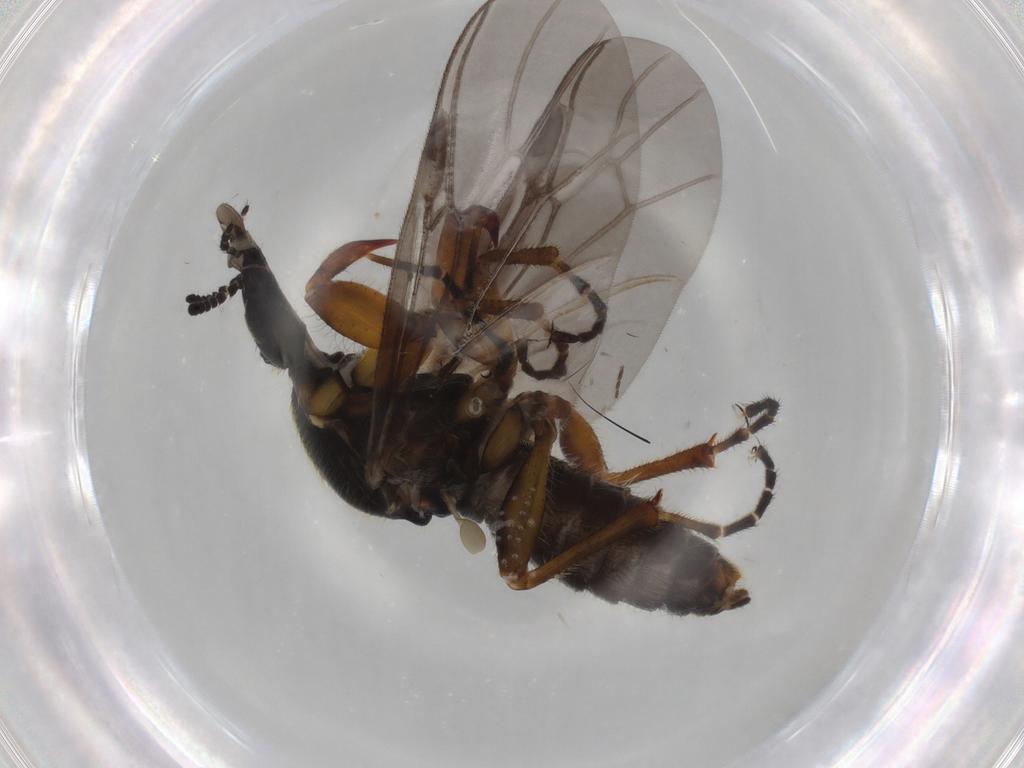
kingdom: Animalia
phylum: Arthropoda
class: Insecta
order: Diptera
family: Bibionidae
